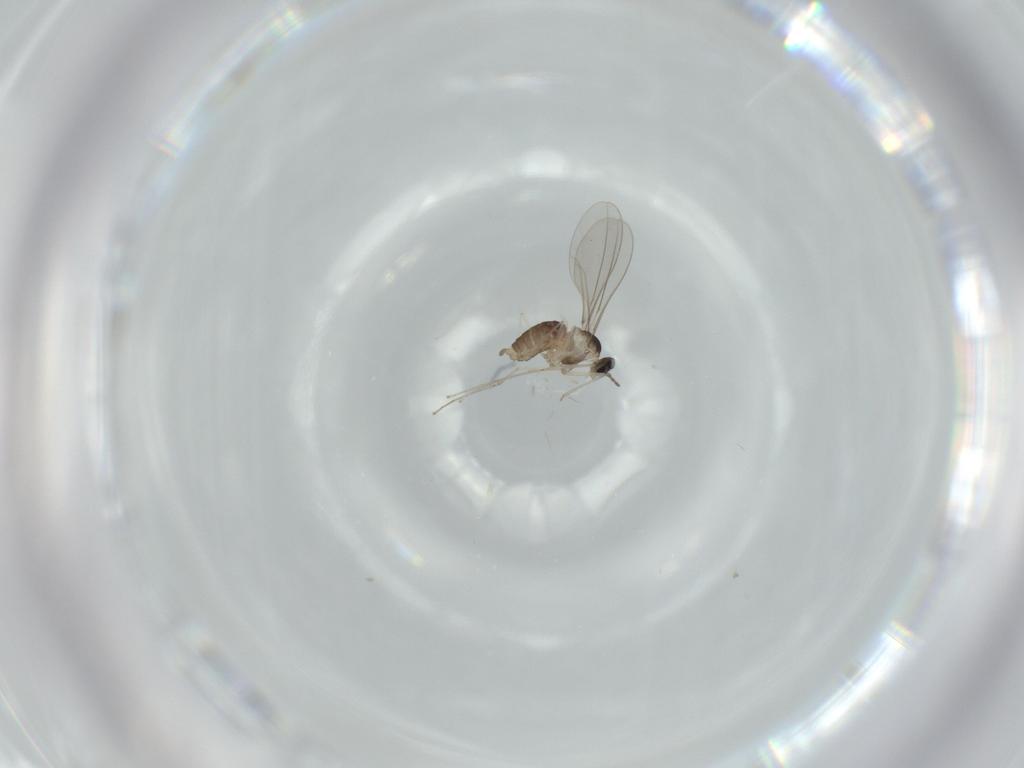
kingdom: Animalia
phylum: Arthropoda
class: Insecta
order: Diptera
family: Cecidomyiidae
